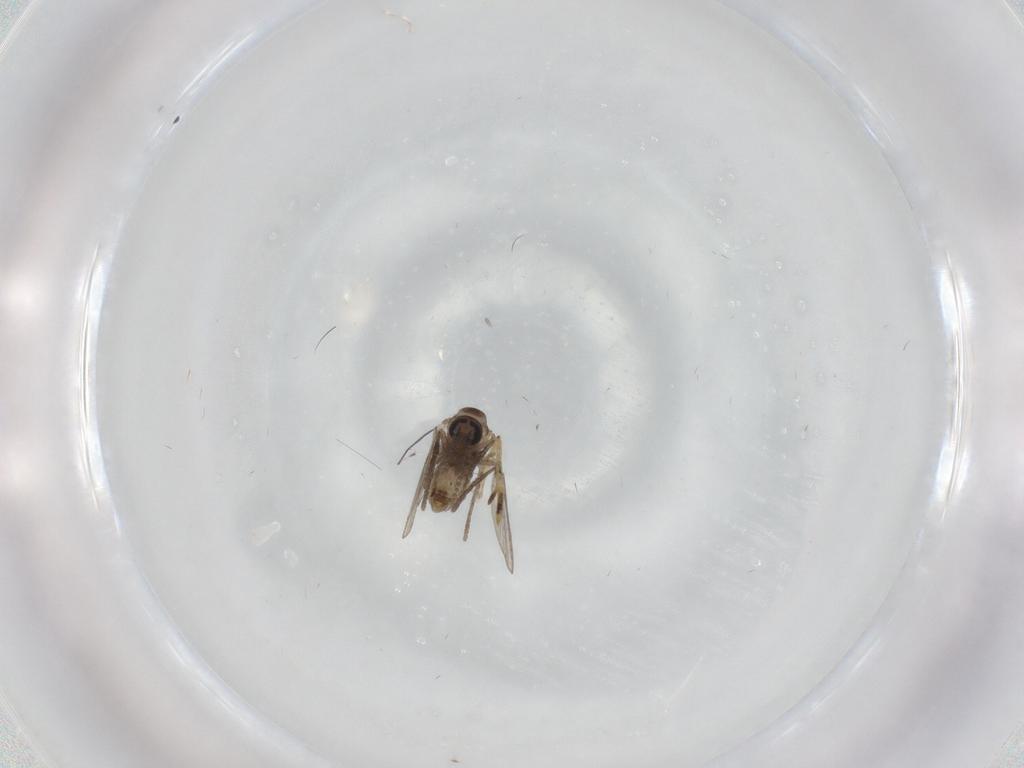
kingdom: Animalia
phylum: Arthropoda
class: Insecta
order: Diptera
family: Psychodidae
